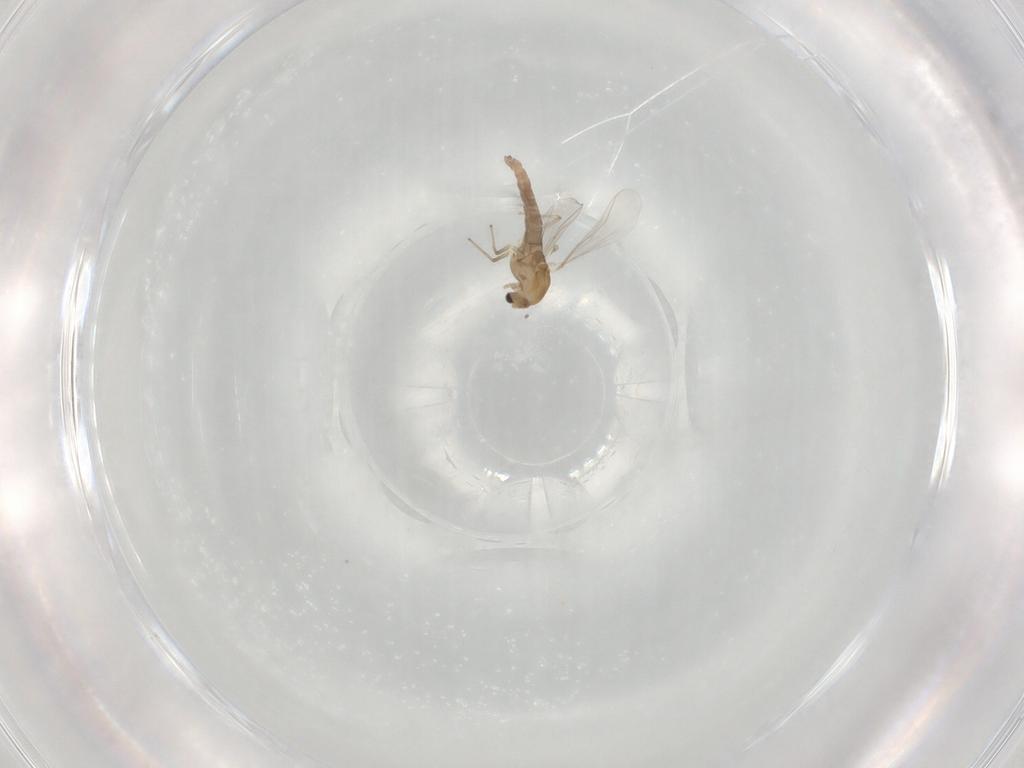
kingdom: Animalia
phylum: Arthropoda
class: Insecta
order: Diptera
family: Chironomidae
